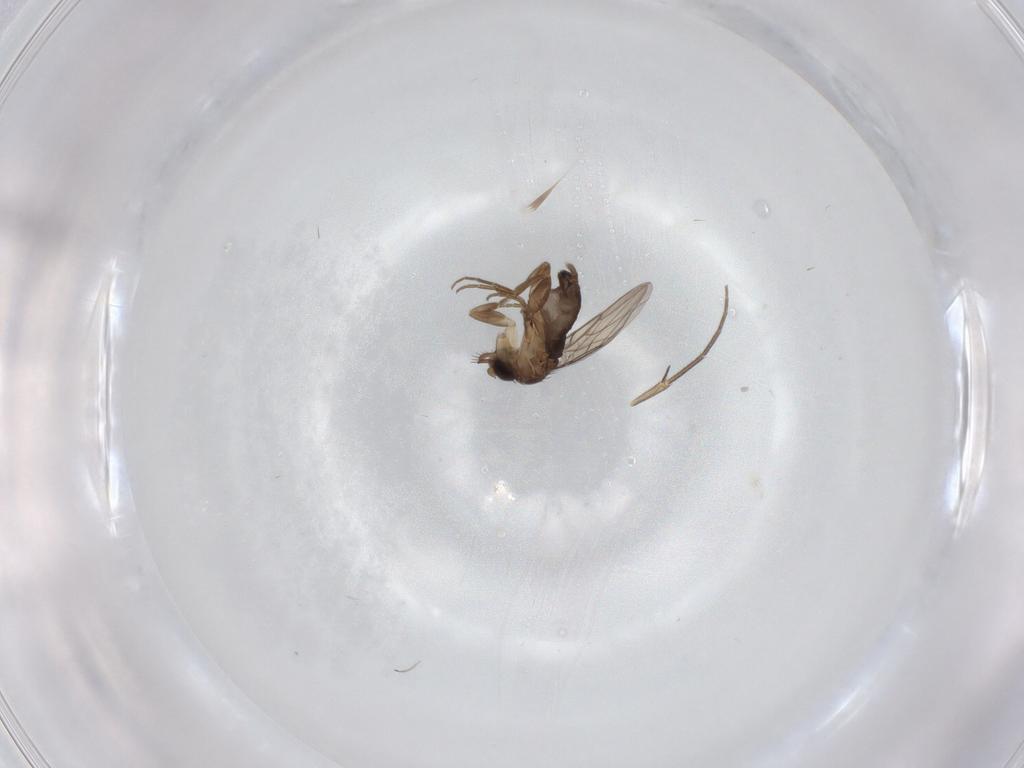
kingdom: Animalia
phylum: Arthropoda
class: Insecta
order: Diptera
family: Mycetophilidae
